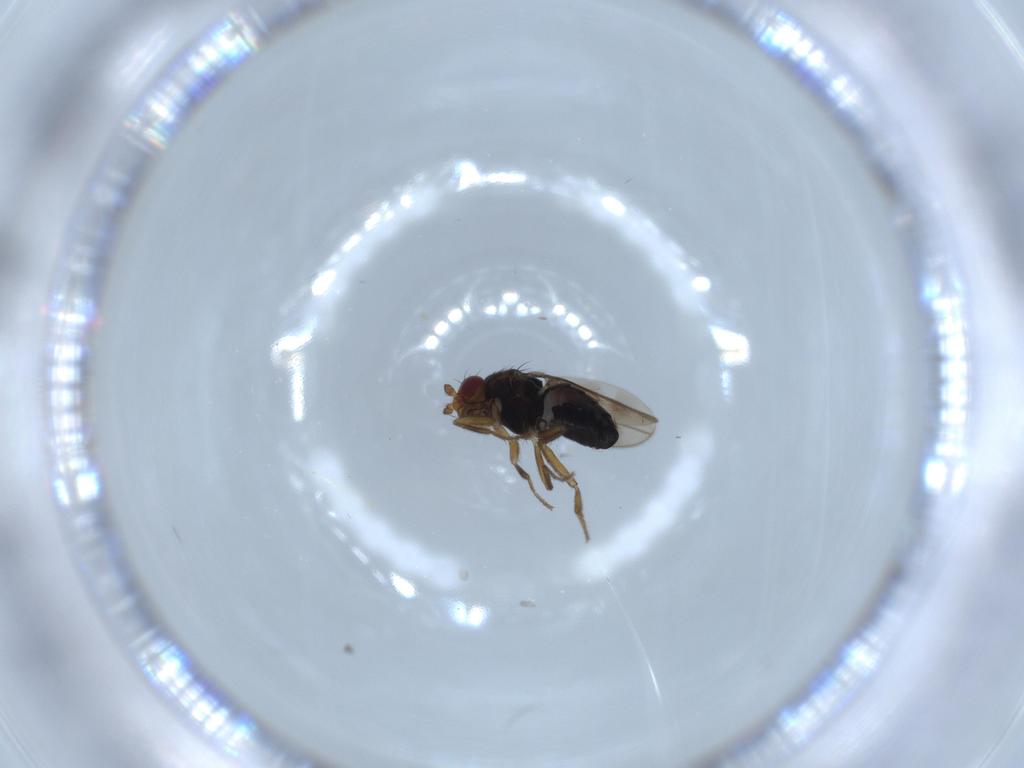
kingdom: Animalia
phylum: Arthropoda
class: Insecta
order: Diptera
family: Sphaeroceridae
